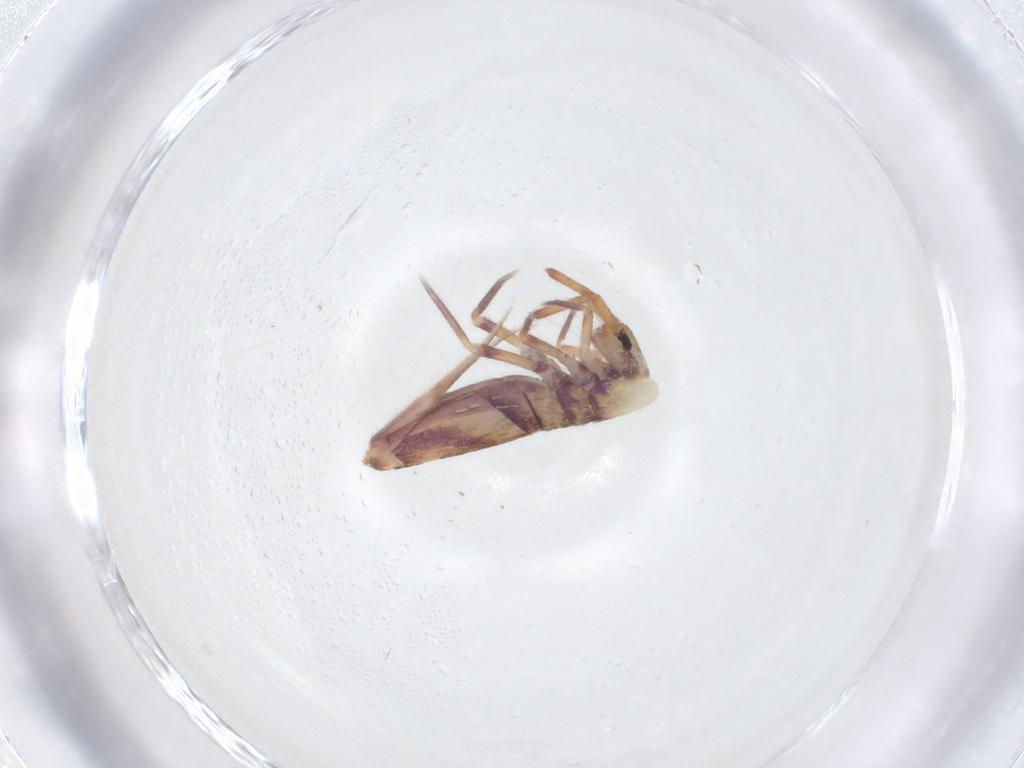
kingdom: Animalia
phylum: Arthropoda
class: Collembola
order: Entomobryomorpha
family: Entomobryidae
